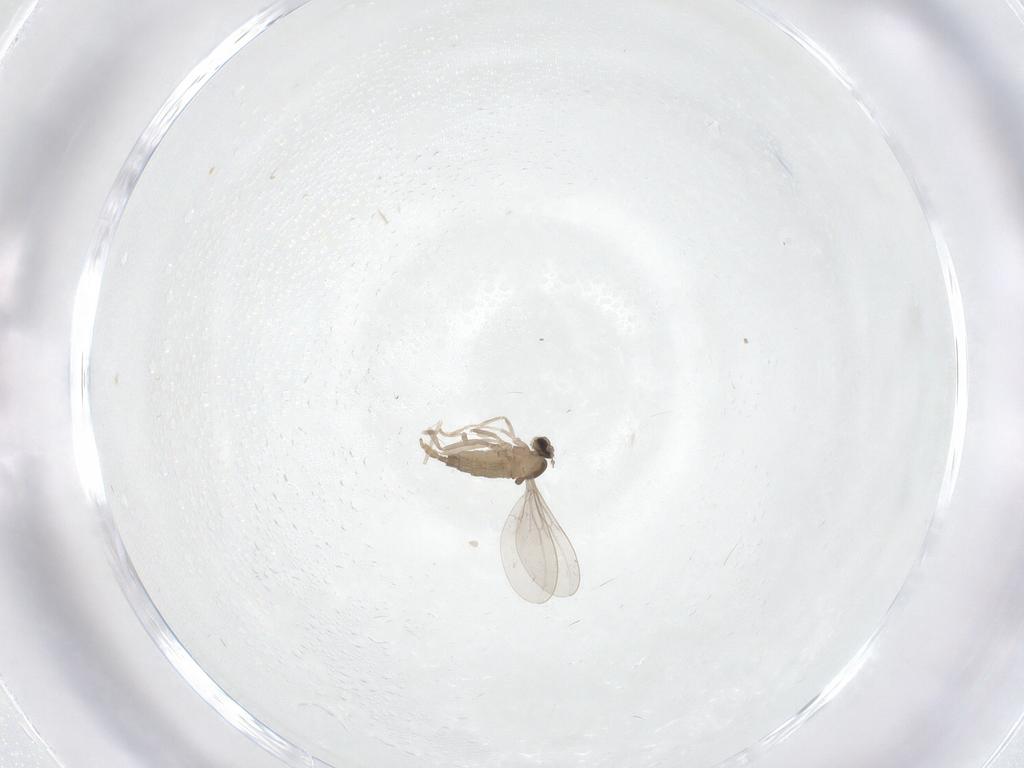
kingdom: Animalia
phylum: Arthropoda
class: Insecta
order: Diptera
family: Cecidomyiidae
